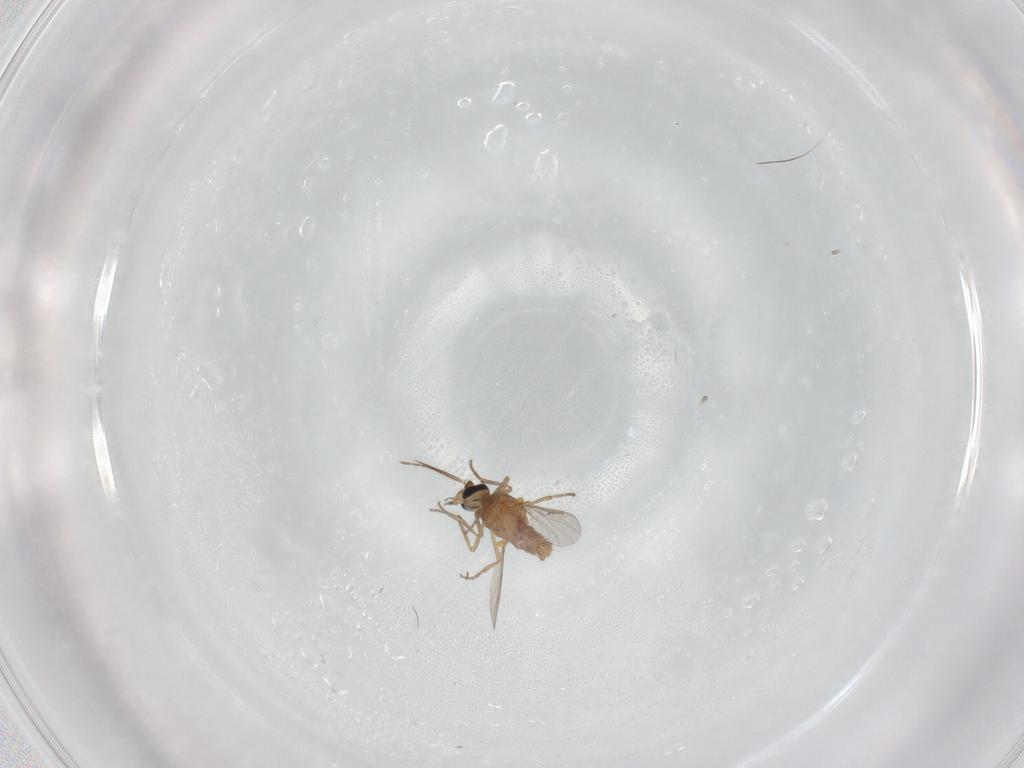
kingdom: Animalia
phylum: Arthropoda
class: Insecta
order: Diptera
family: Ceratopogonidae
